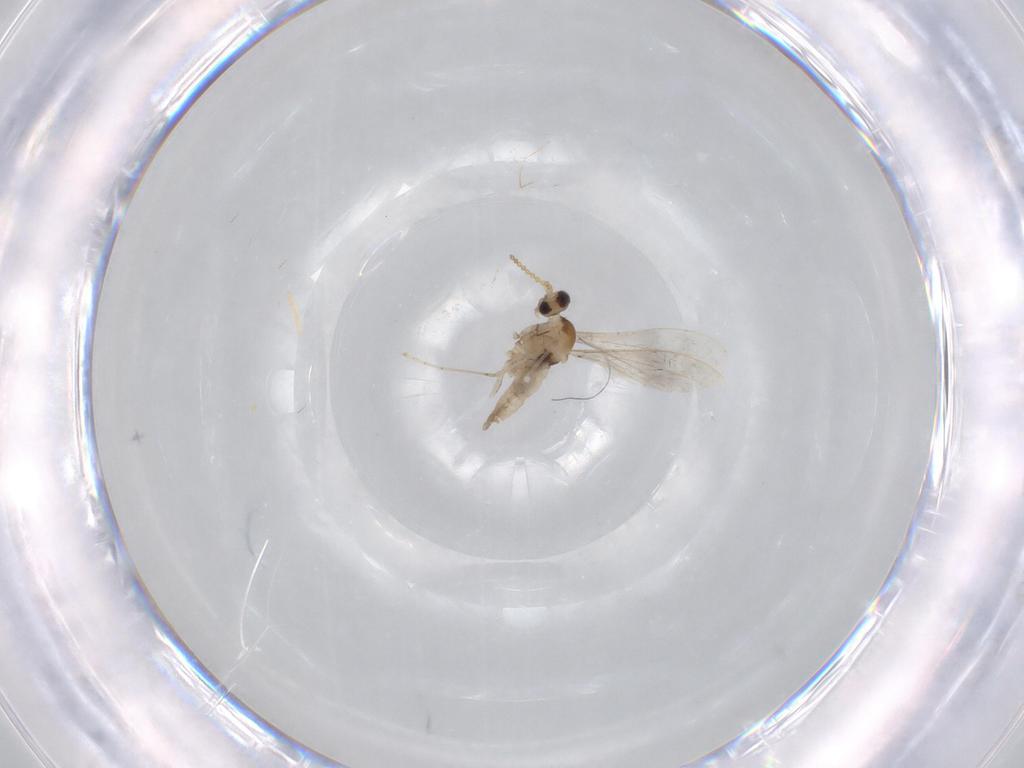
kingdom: Animalia
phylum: Arthropoda
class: Insecta
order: Diptera
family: Cecidomyiidae
